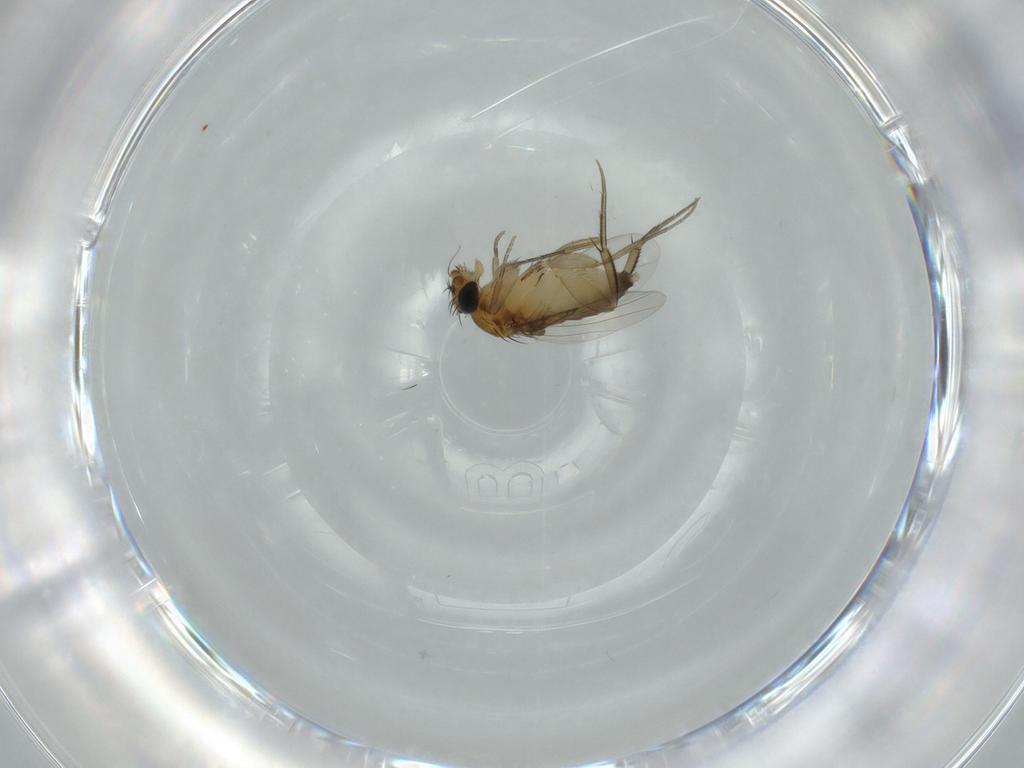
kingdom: Animalia
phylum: Arthropoda
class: Insecta
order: Diptera
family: Phoridae
